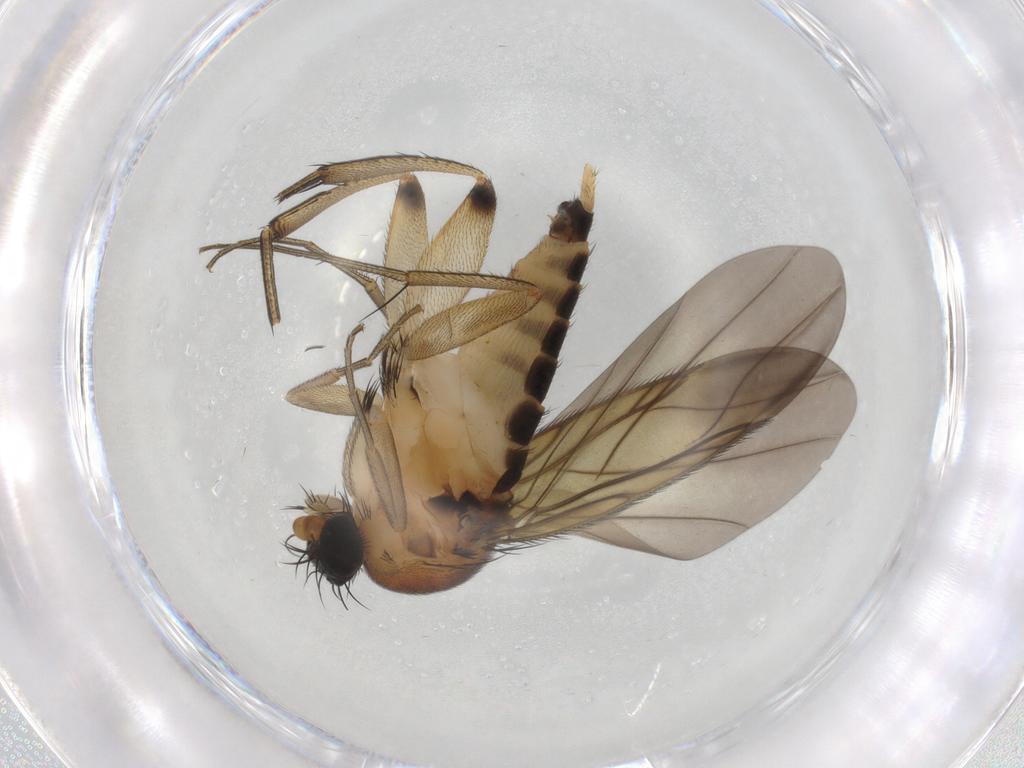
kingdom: Animalia
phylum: Arthropoda
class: Insecta
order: Diptera
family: Phoridae
